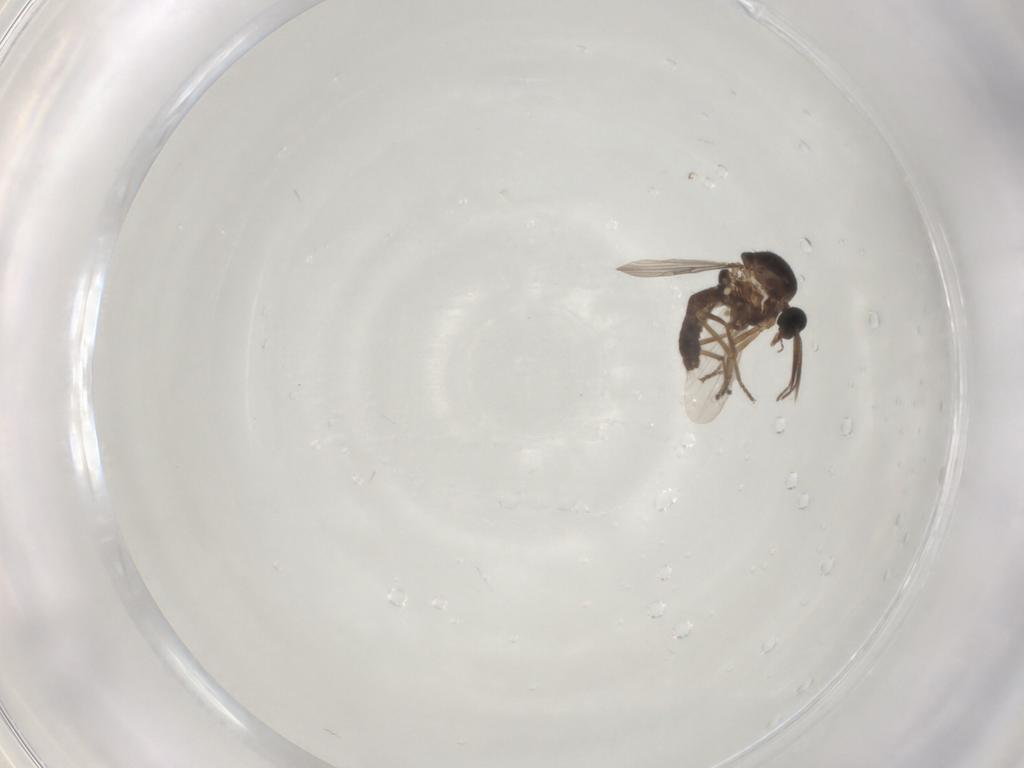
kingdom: Animalia
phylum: Arthropoda
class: Insecta
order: Diptera
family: Ceratopogonidae
